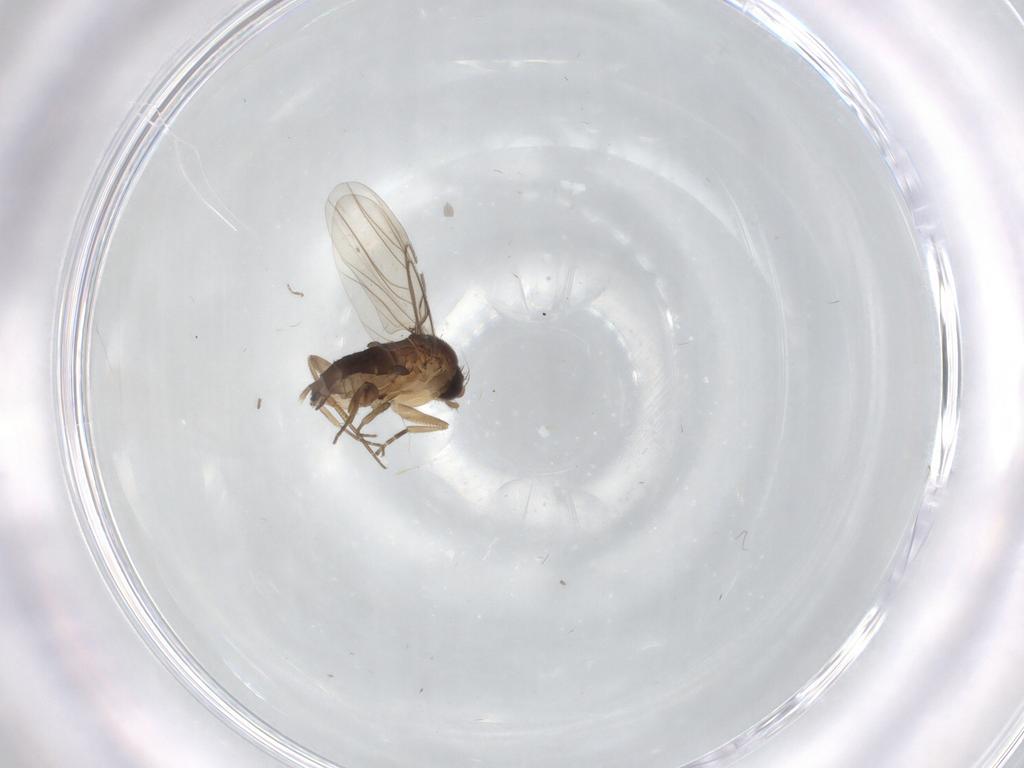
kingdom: Animalia
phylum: Arthropoda
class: Insecta
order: Diptera
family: Phoridae
